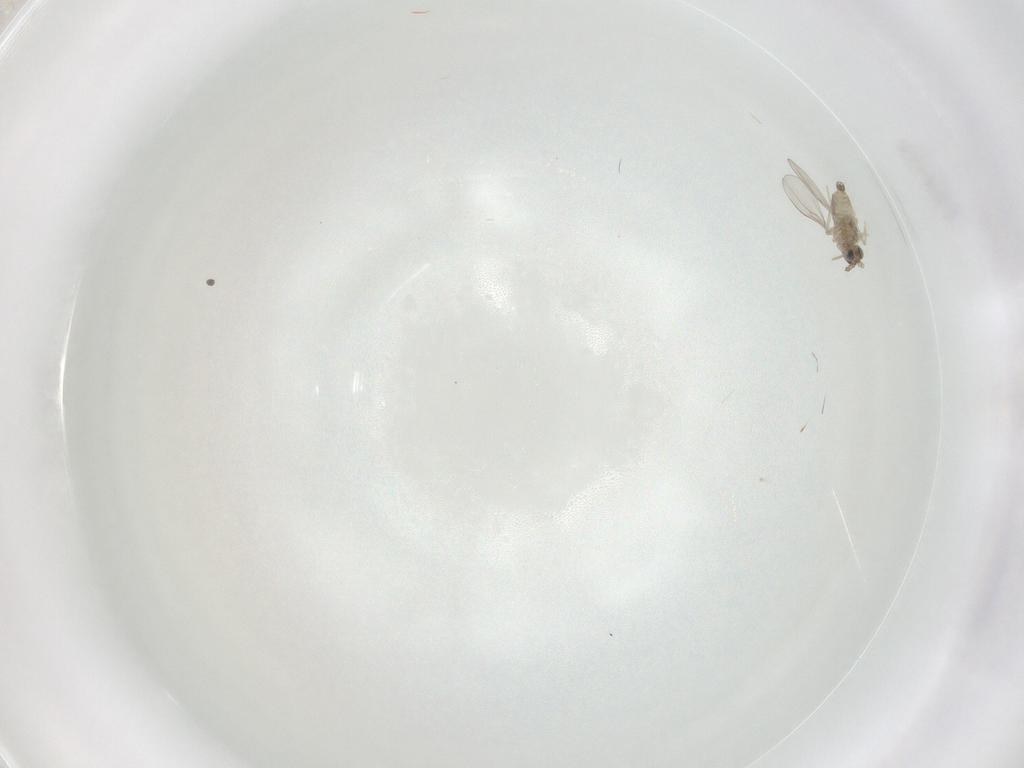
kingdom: Animalia
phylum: Arthropoda
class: Insecta
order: Diptera
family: Cecidomyiidae
